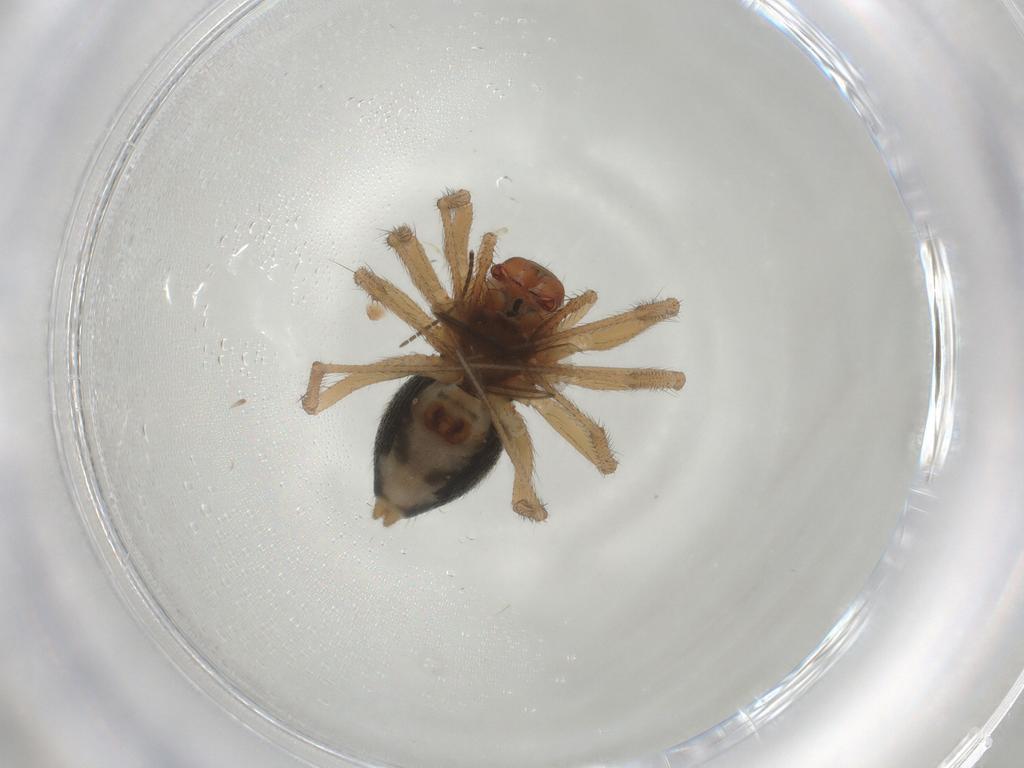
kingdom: Animalia
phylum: Arthropoda
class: Arachnida
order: Araneae
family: Linyphiidae
